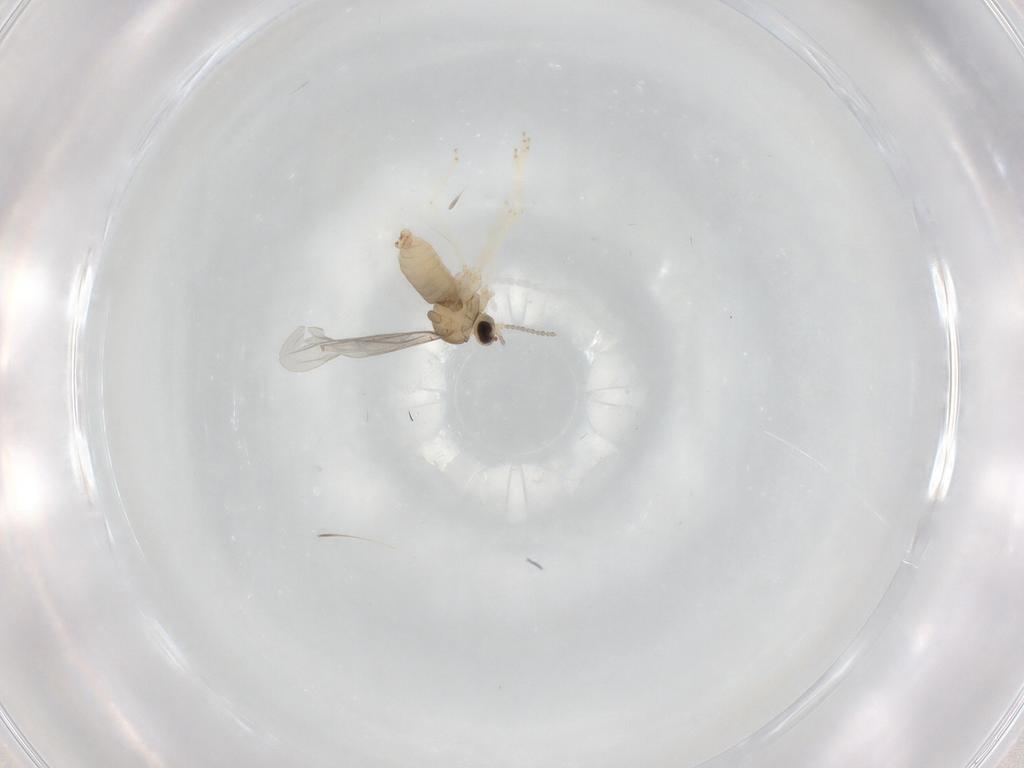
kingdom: Animalia
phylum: Arthropoda
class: Insecta
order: Diptera
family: Cecidomyiidae
